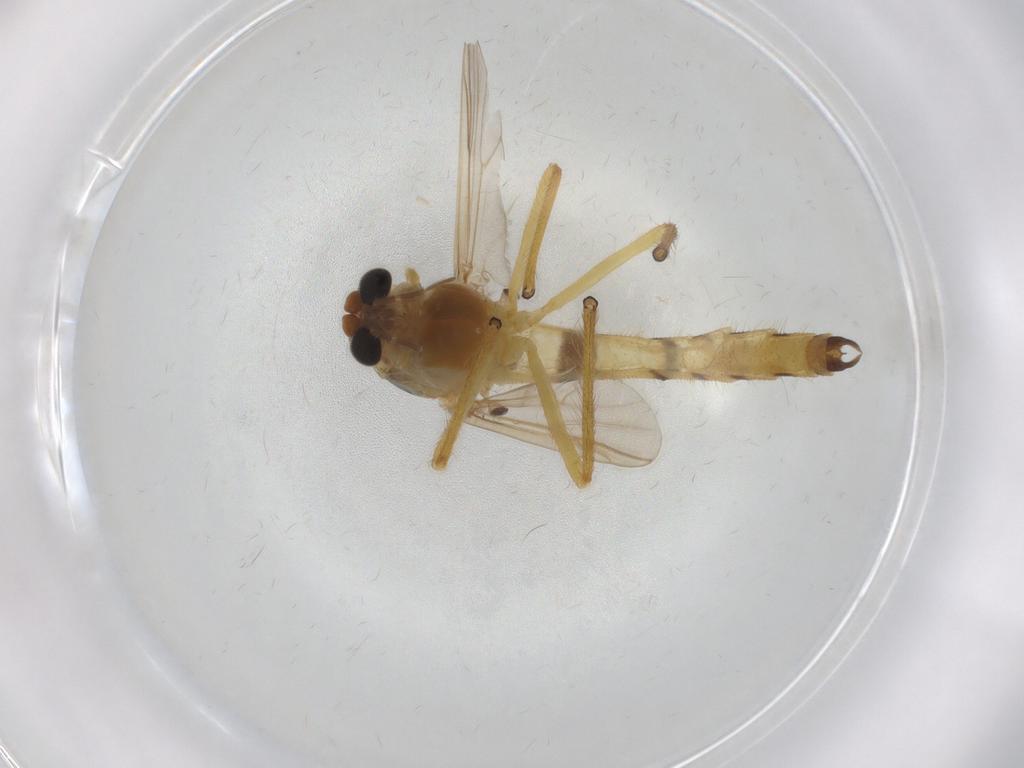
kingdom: Animalia
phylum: Arthropoda
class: Insecta
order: Diptera
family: Chironomidae
